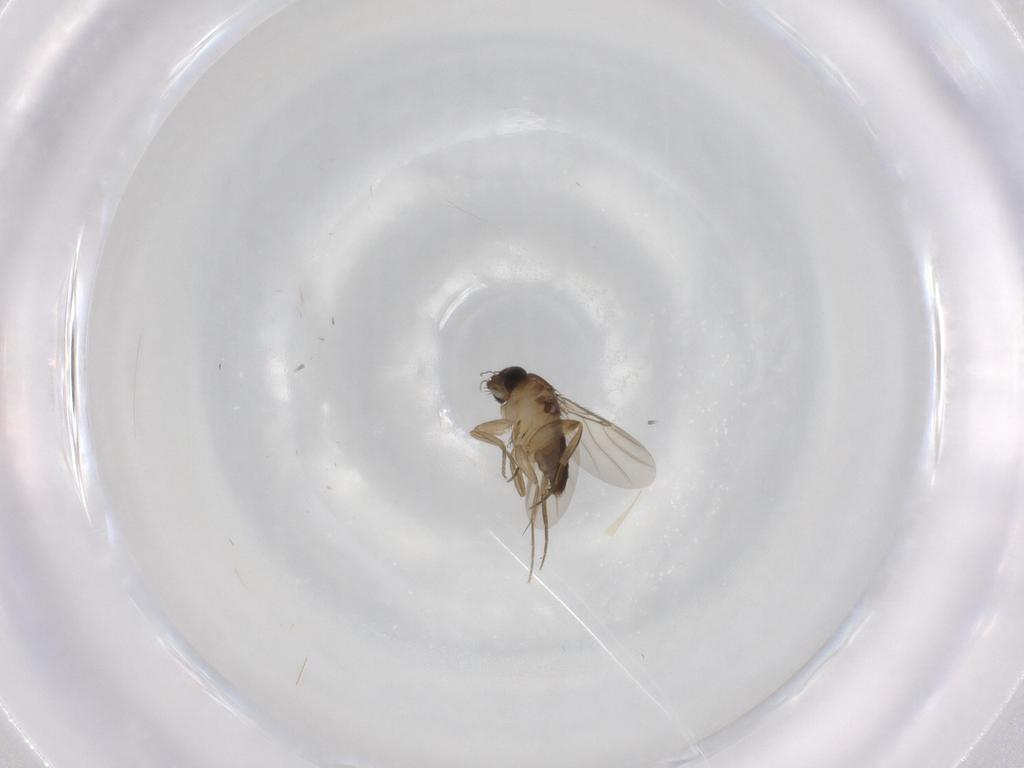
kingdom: Animalia
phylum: Arthropoda
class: Insecta
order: Diptera
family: Phoridae
